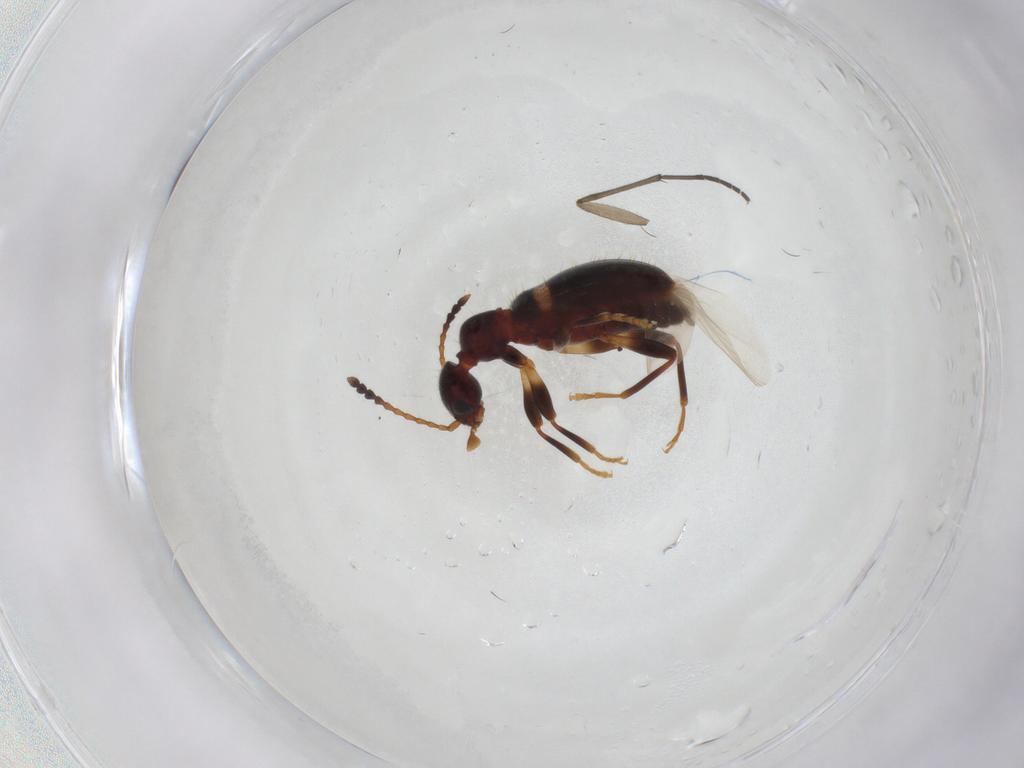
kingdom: Animalia
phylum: Arthropoda
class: Insecta
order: Coleoptera
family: Anthicidae
